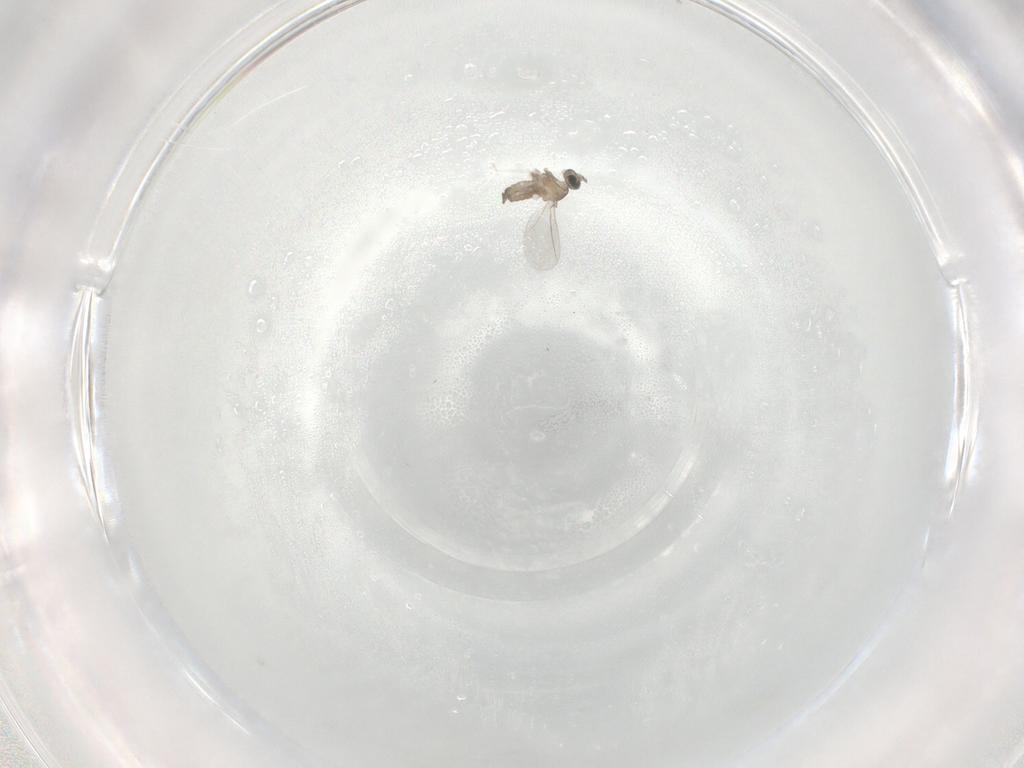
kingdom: Animalia
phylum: Arthropoda
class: Insecta
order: Diptera
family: Cecidomyiidae
